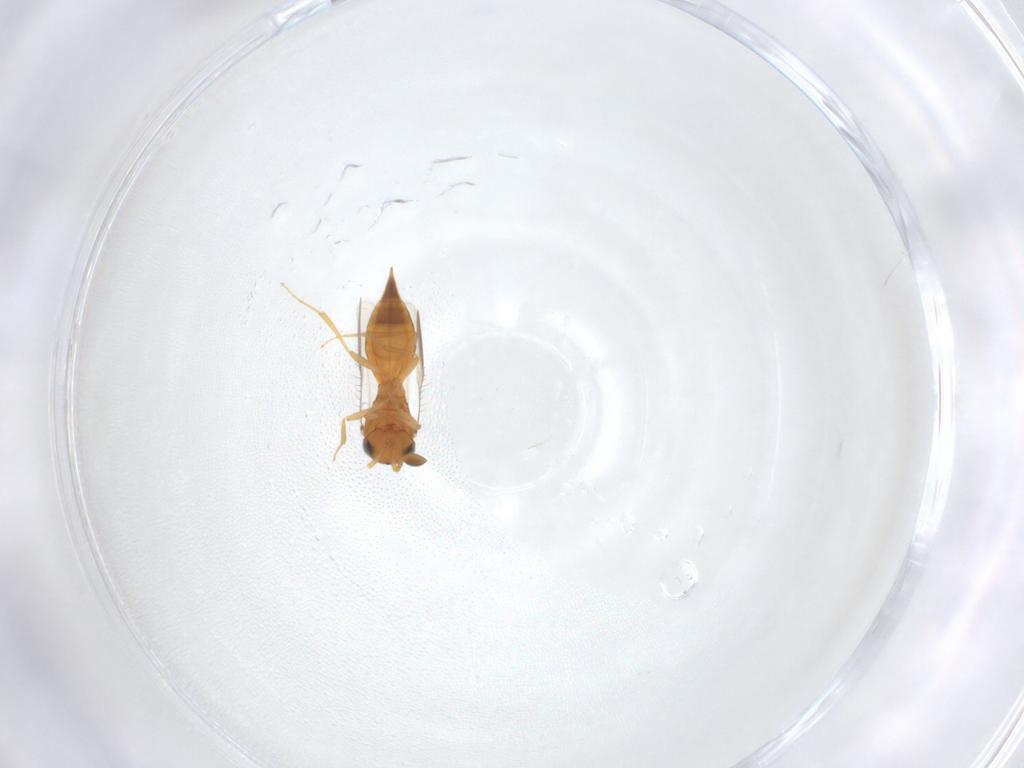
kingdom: Animalia
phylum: Arthropoda
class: Insecta
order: Hymenoptera
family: Scelionidae
